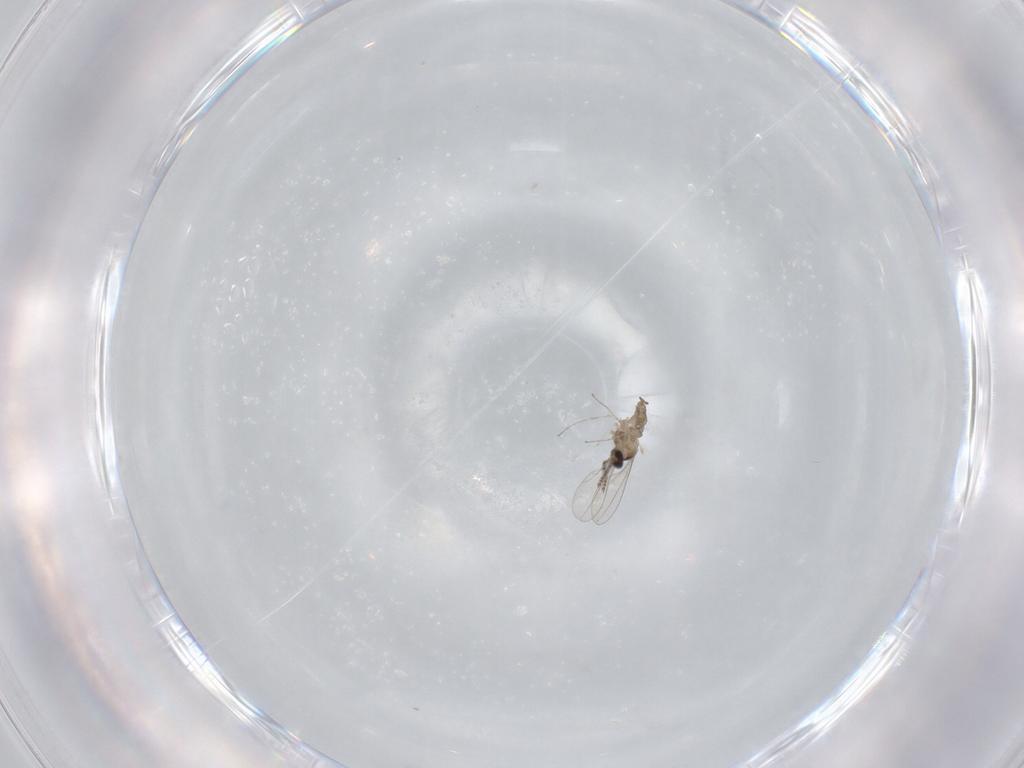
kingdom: Animalia
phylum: Arthropoda
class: Insecta
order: Diptera
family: Cecidomyiidae
